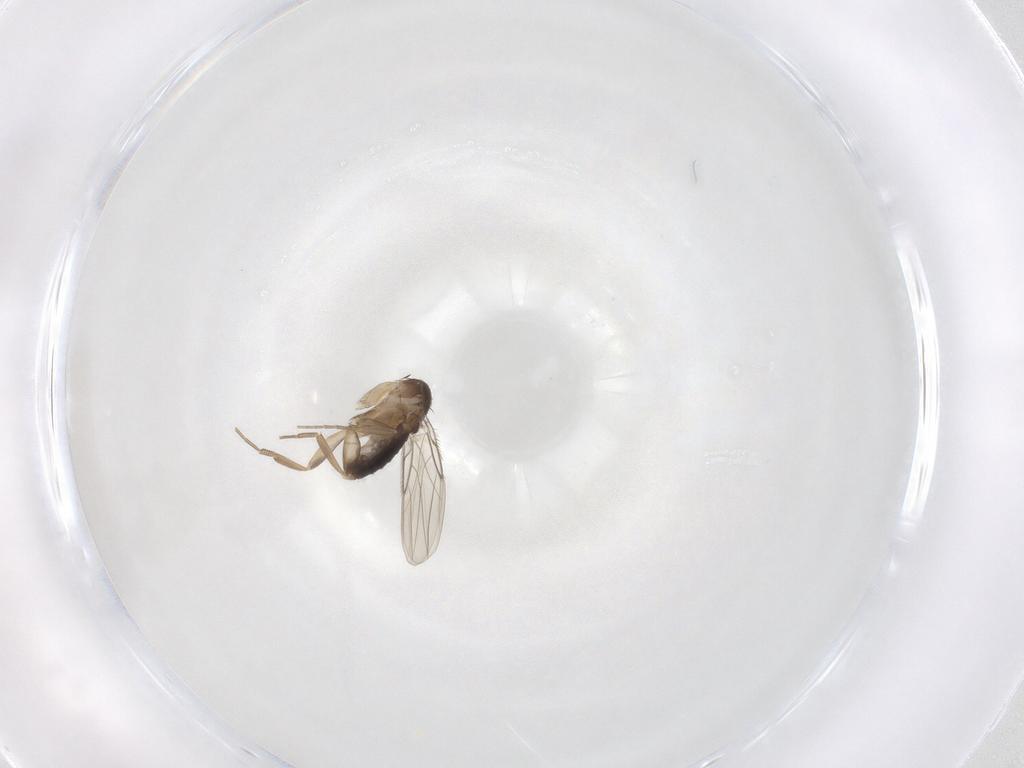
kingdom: Animalia
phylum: Arthropoda
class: Insecta
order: Diptera
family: Phoridae
